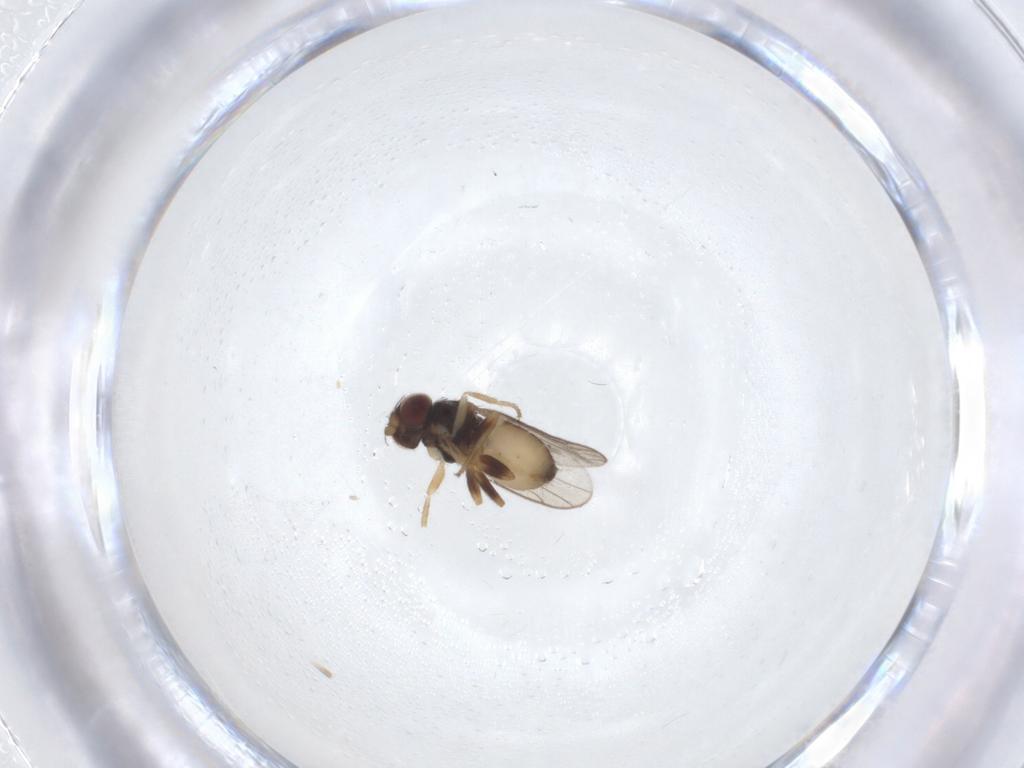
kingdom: Animalia
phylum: Arthropoda
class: Insecta
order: Diptera
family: Chloropidae
